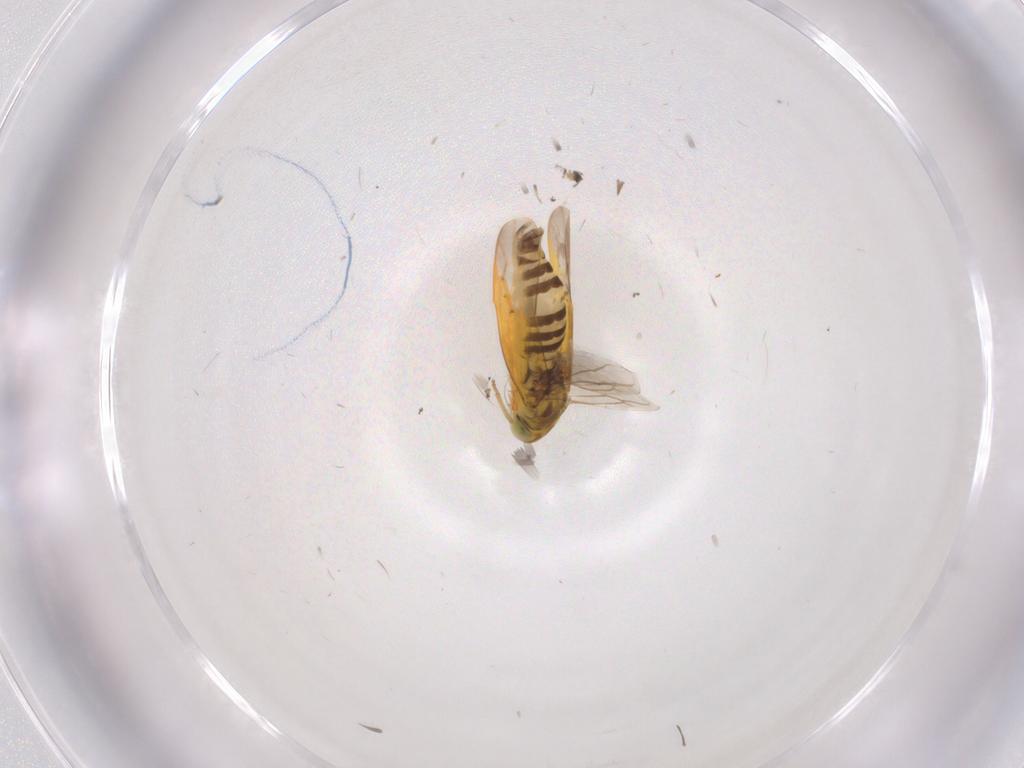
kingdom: Animalia
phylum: Arthropoda
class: Insecta
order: Hemiptera
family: Cicadellidae
